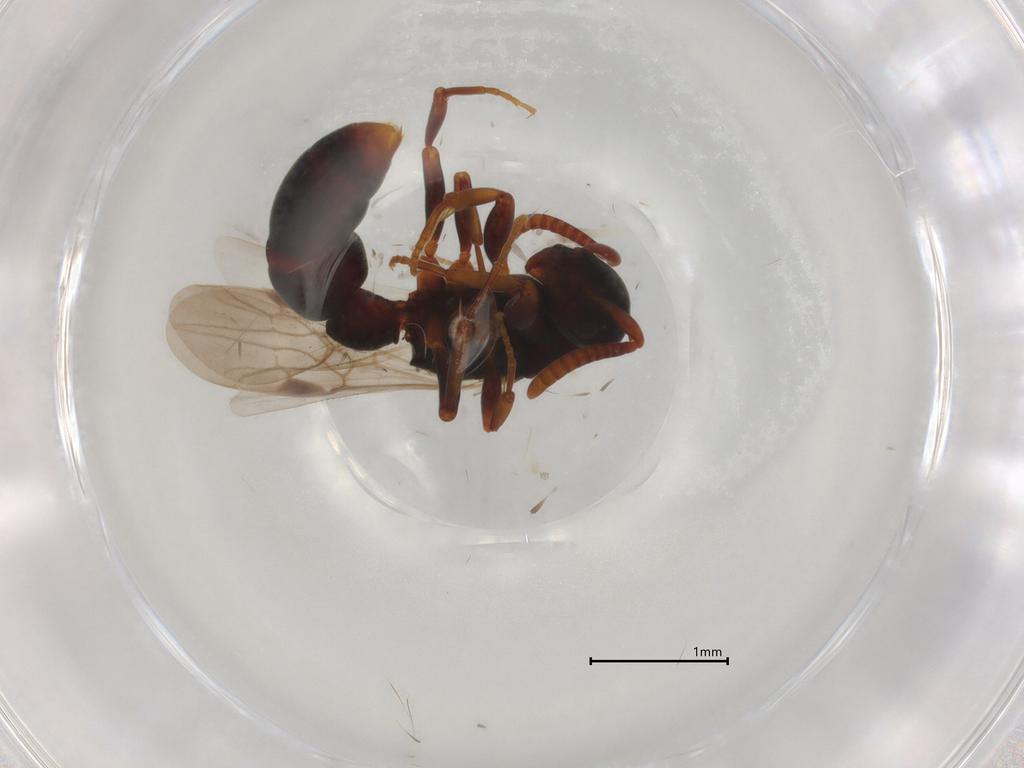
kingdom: Animalia
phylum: Arthropoda
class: Insecta
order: Hymenoptera
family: Formicidae
